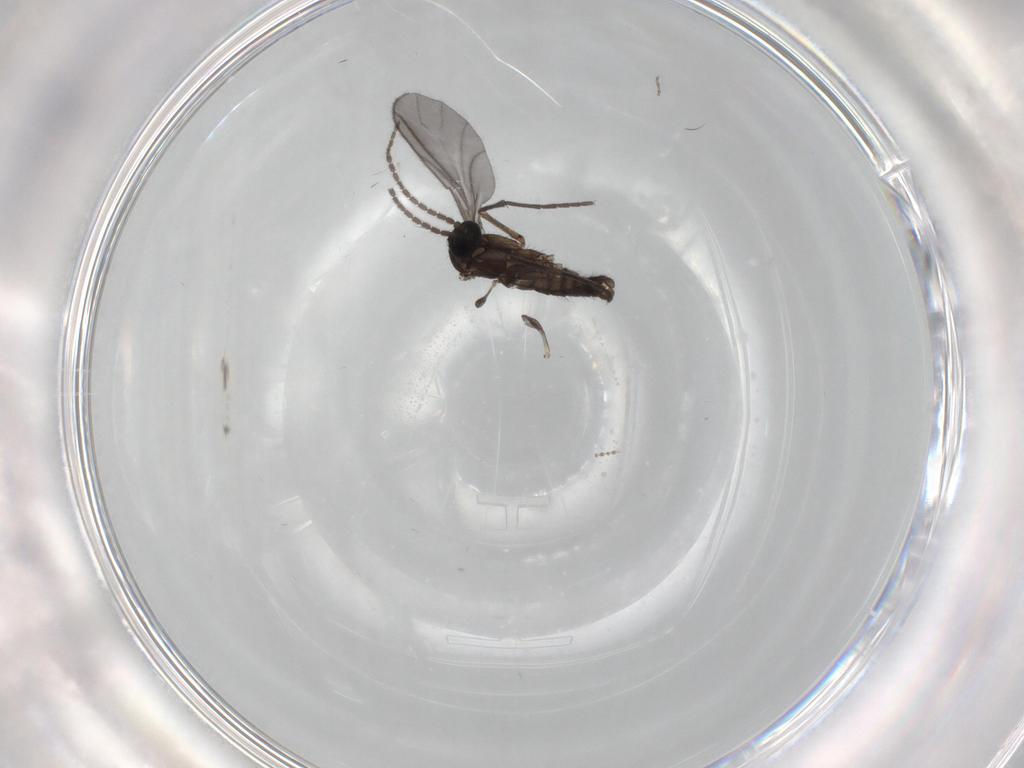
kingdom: Animalia
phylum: Arthropoda
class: Insecta
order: Diptera
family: Sciaridae
